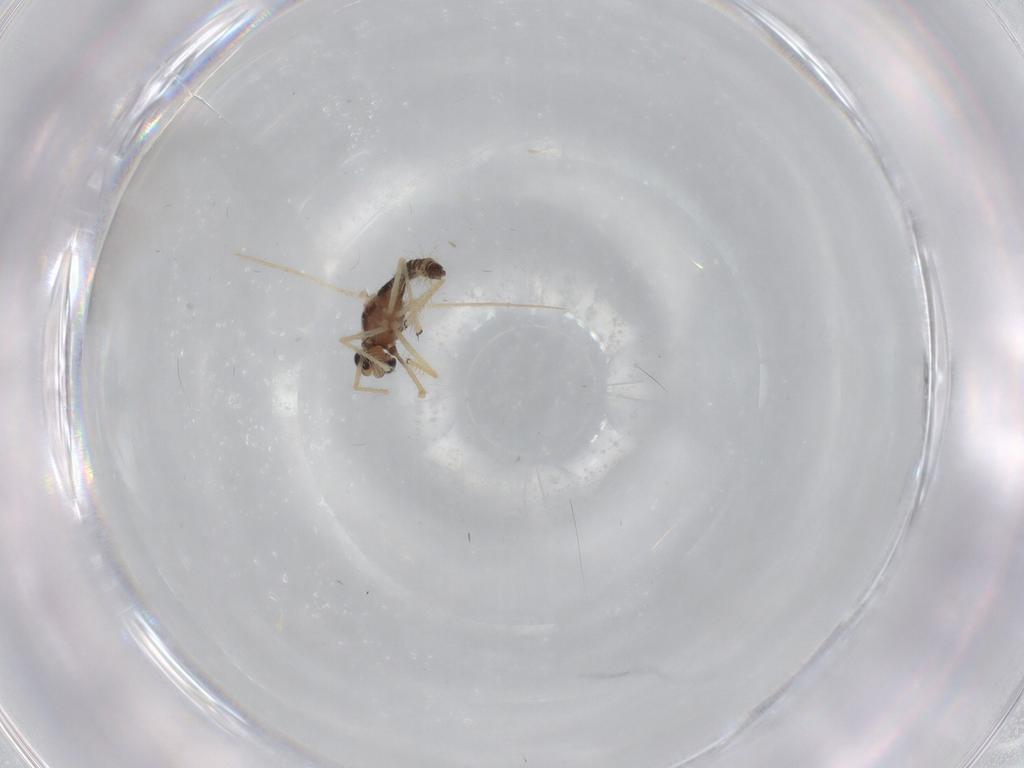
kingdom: Animalia
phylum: Arthropoda
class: Insecta
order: Diptera
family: Chironomidae
